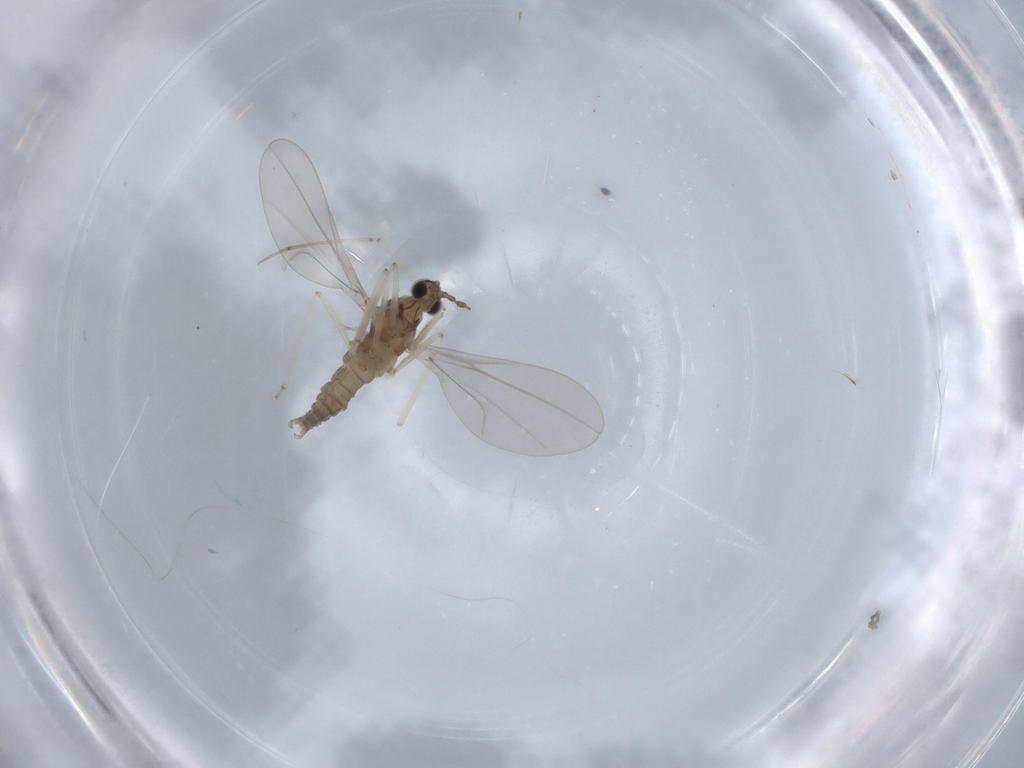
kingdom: Animalia
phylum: Arthropoda
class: Insecta
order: Diptera
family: Cecidomyiidae
